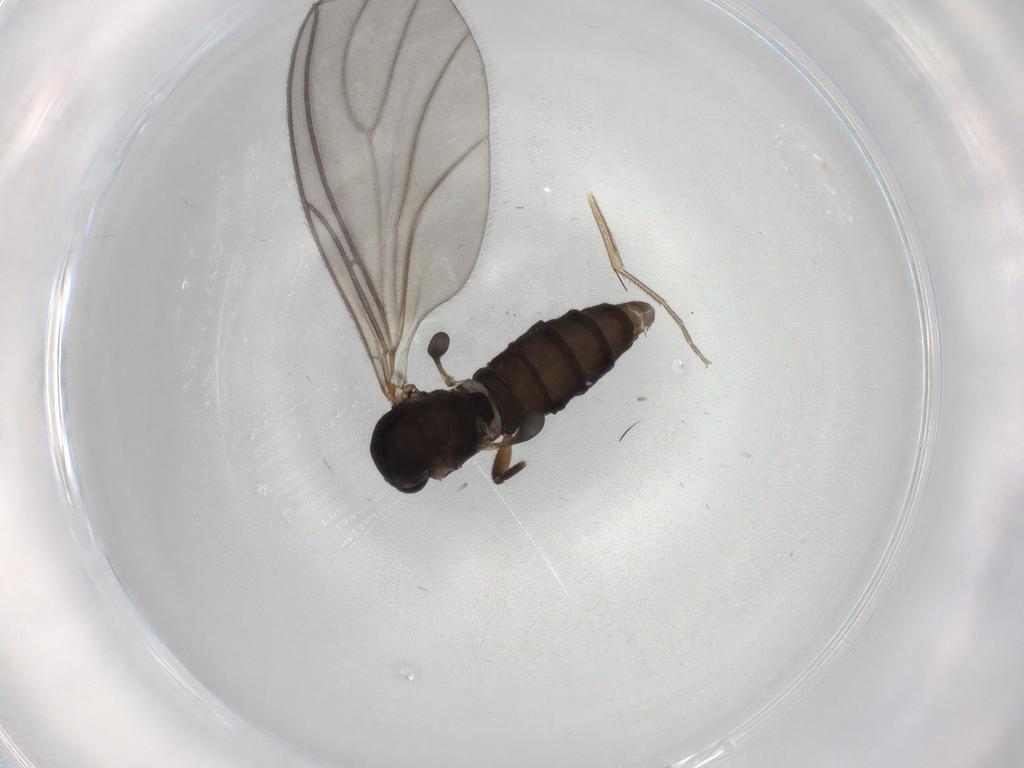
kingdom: Animalia
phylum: Arthropoda
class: Insecta
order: Diptera
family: Sciaridae
